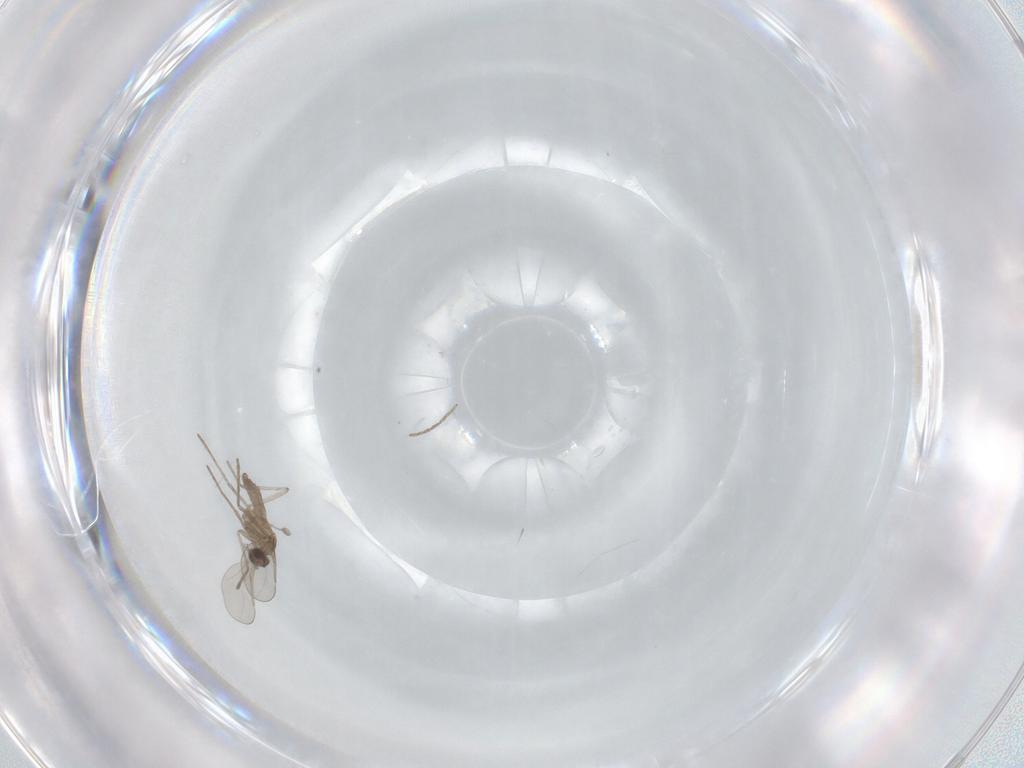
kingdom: Animalia
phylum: Arthropoda
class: Insecta
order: Diptera
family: Cecidomyiidae
